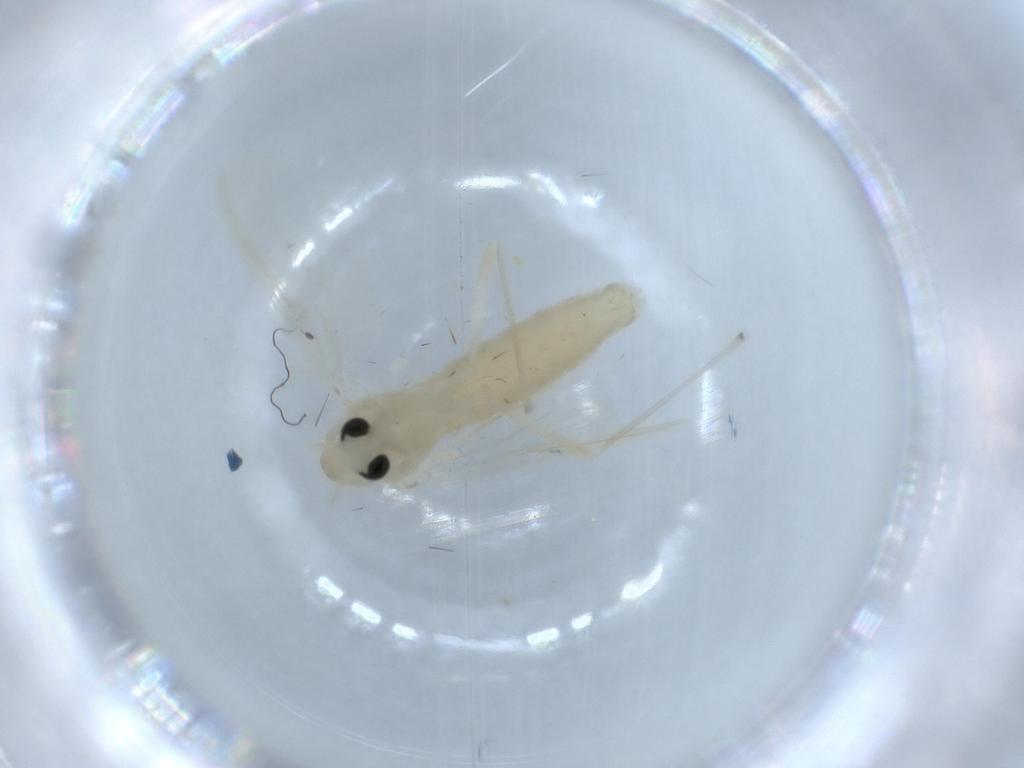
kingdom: Animalia
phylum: Arthropoda
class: Insecta
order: Diptera
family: Chironomidae
